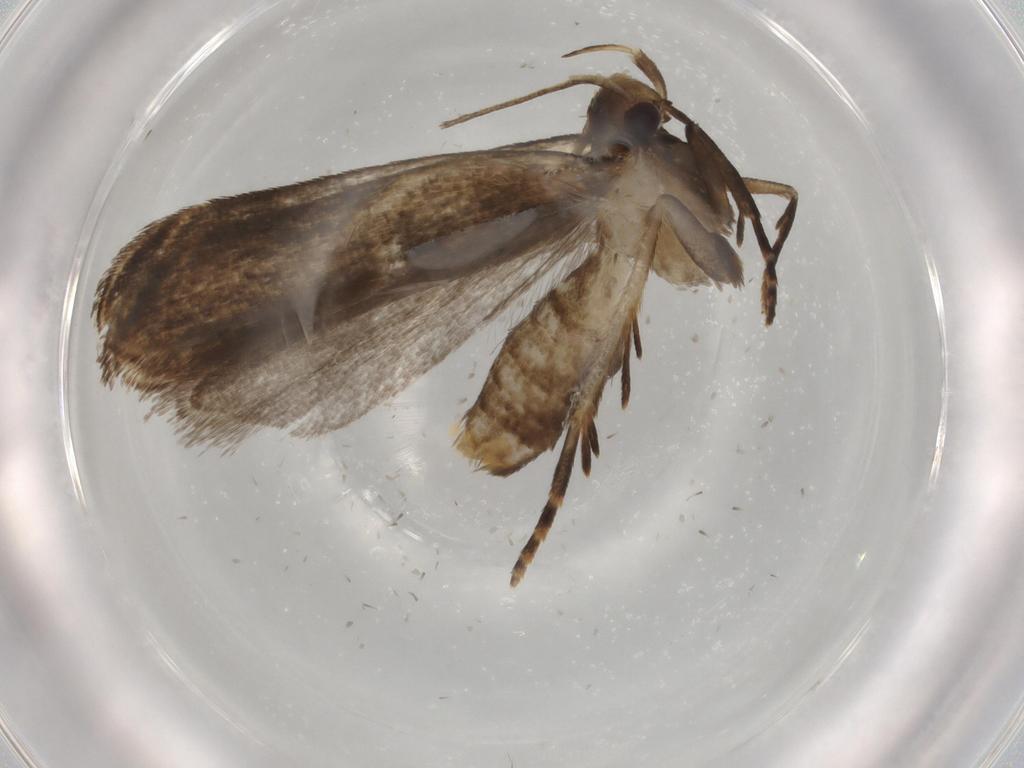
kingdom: Animalia
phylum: Arthropoda
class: Insecta
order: Lepidoptera
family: Gelechiidae
